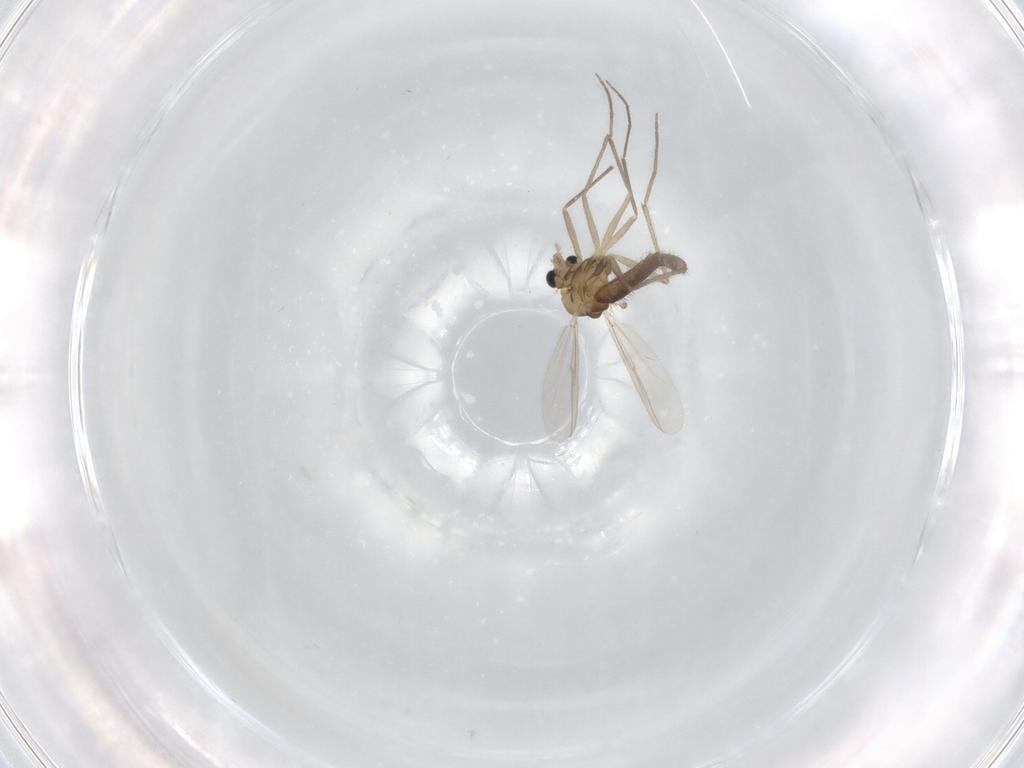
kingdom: Animalia
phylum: Arthropoda
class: Insecta
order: Diptera
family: Chironomidae
